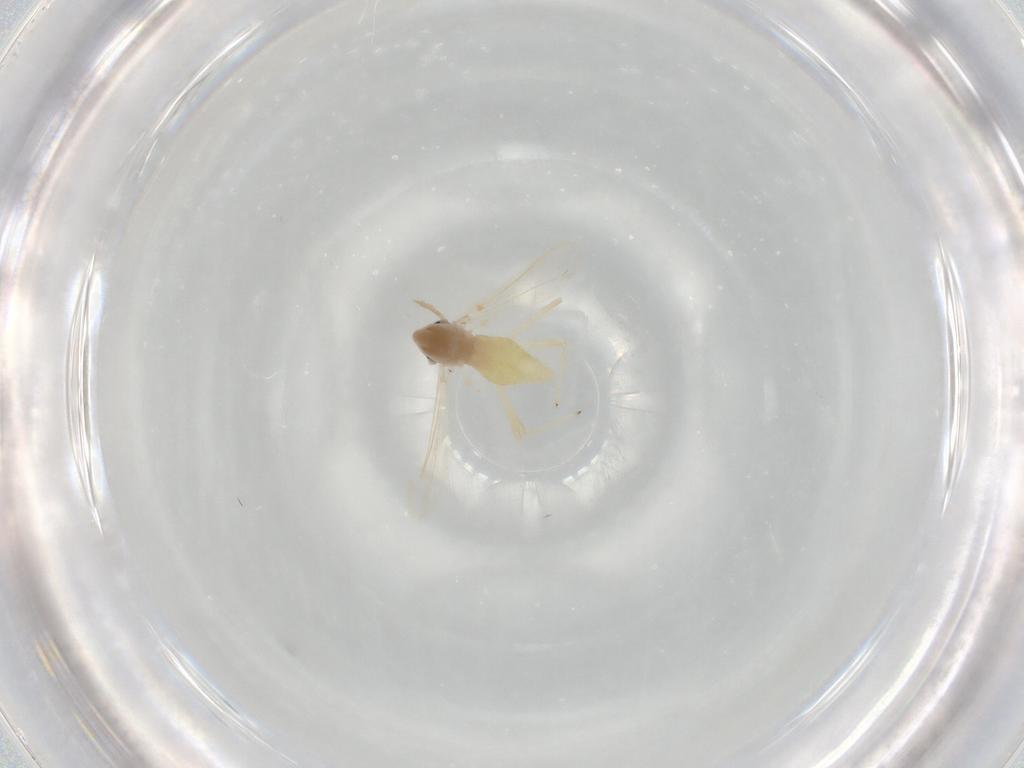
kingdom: Animalia
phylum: Arthropoda
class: Insecta
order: Diptera
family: Chironomidae
